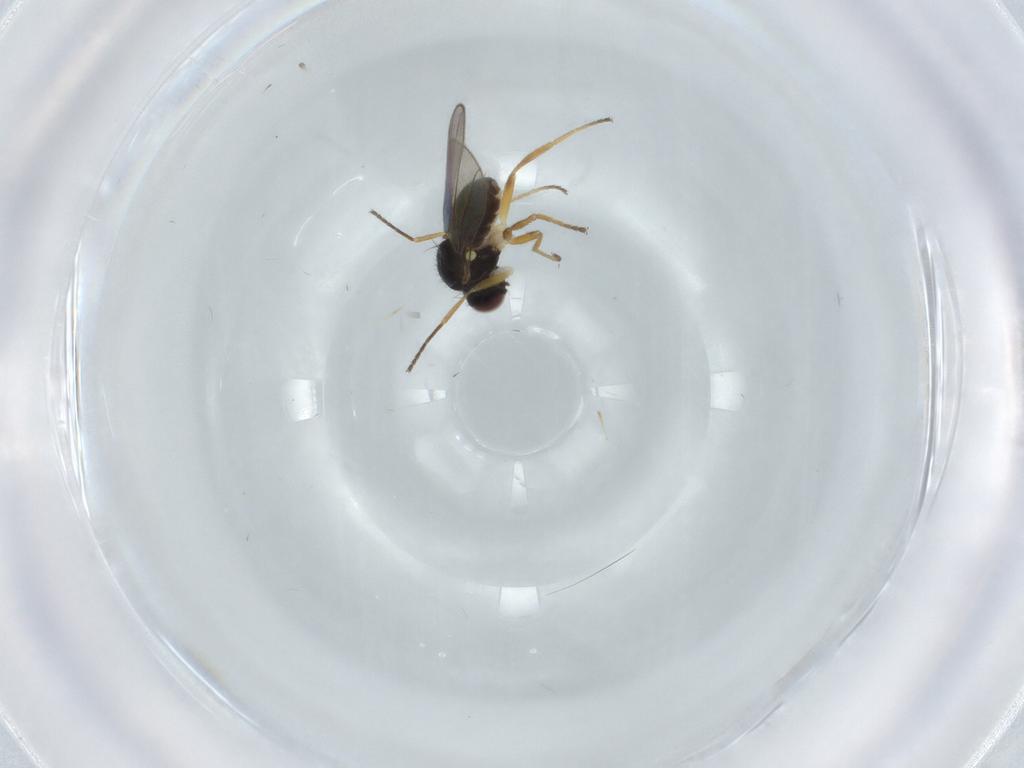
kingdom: Animalia
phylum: Arthropoda
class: Insecta
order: Diptera
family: Chloropidae
